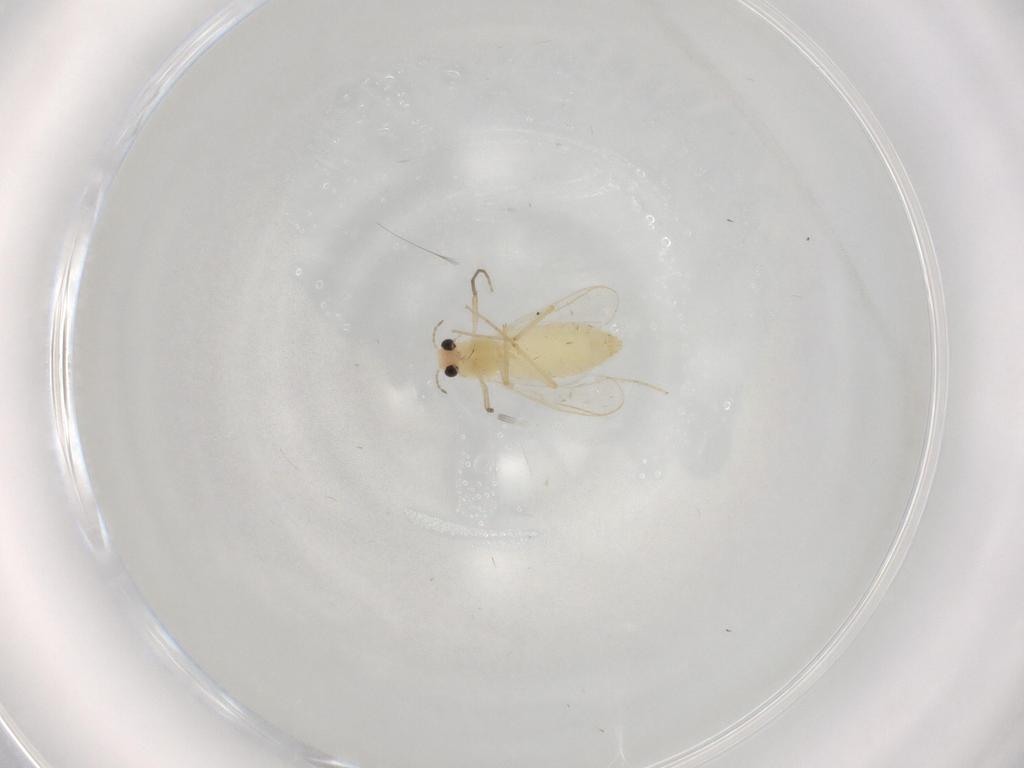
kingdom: Animalia
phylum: Arthropoda
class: Insecta
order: Diptera
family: Chironomidae
